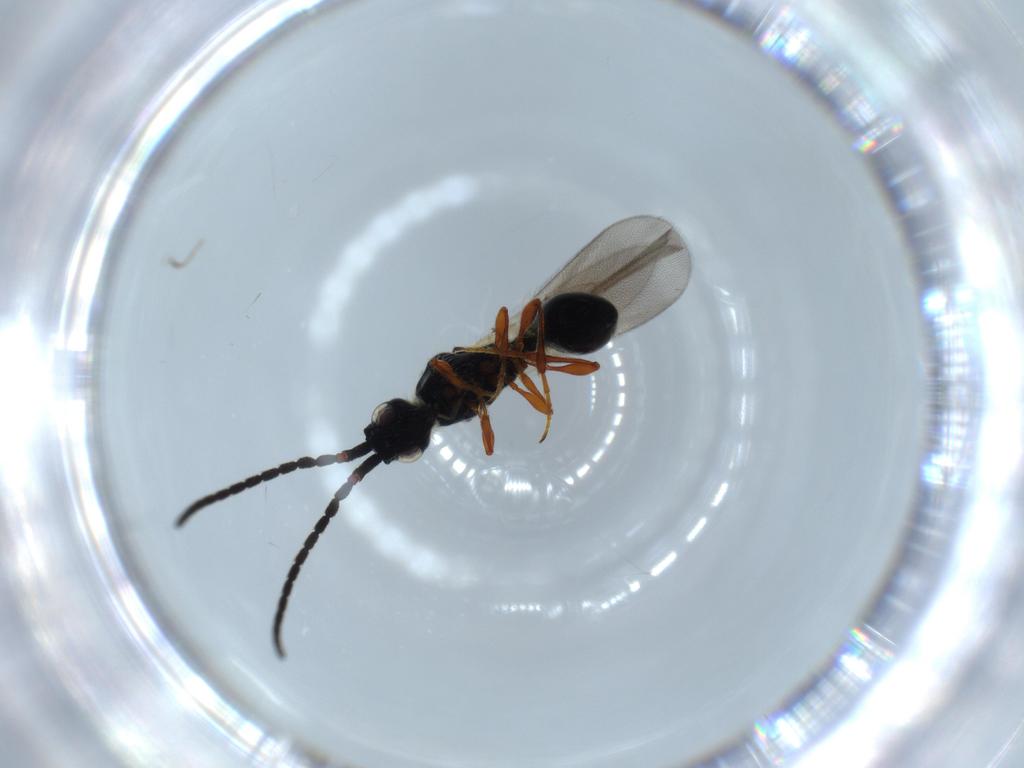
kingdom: Animalia
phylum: Arthropoda
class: Insecta
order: Hymenoptera
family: Diapriidae
